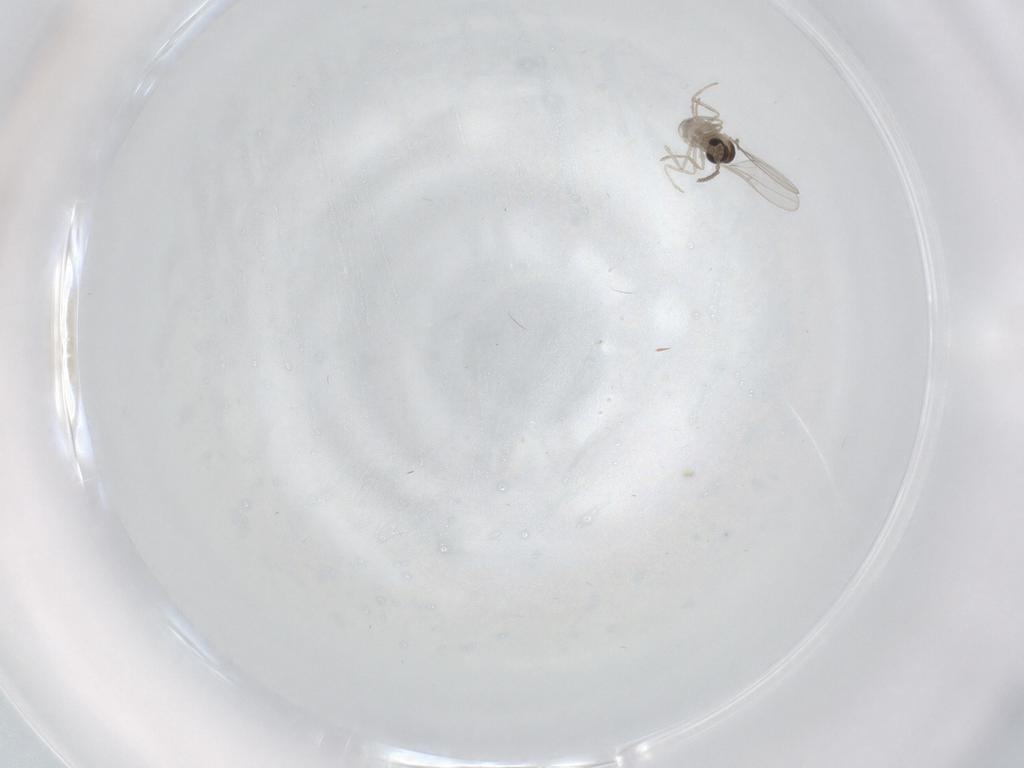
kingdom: Animalia
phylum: Arthropoda
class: Insecta
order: Diptera
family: Cecidomyiidae
